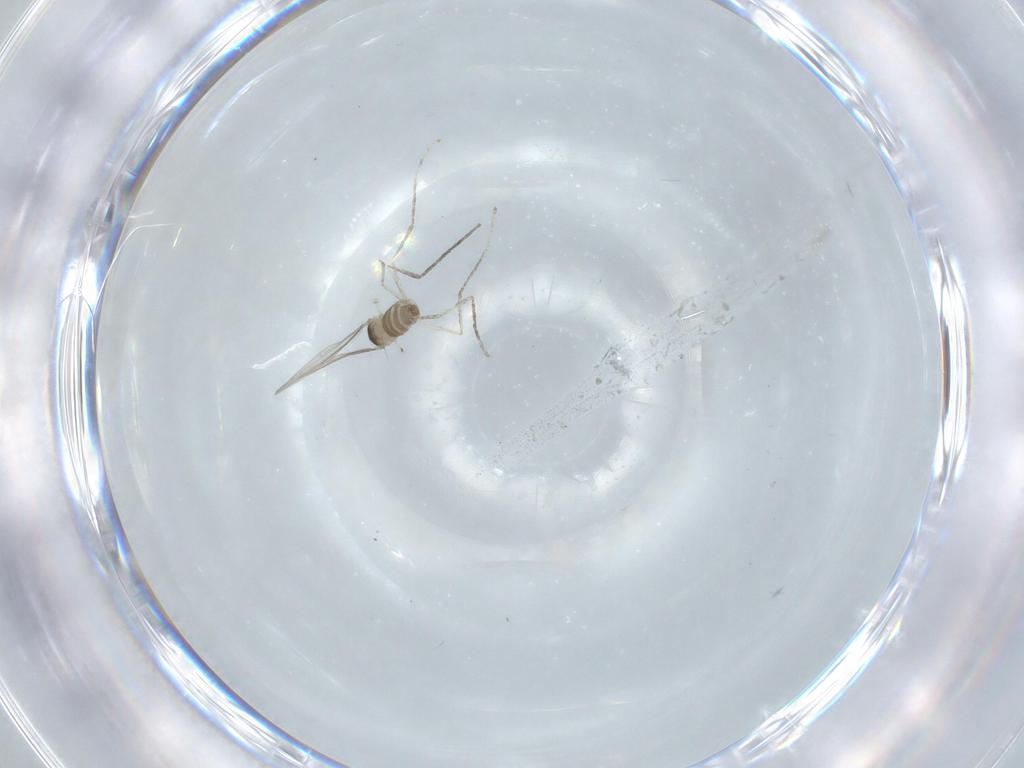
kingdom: Animalia
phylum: Arthropoda
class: Insecta
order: Diptera
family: Cecidomyiidae
